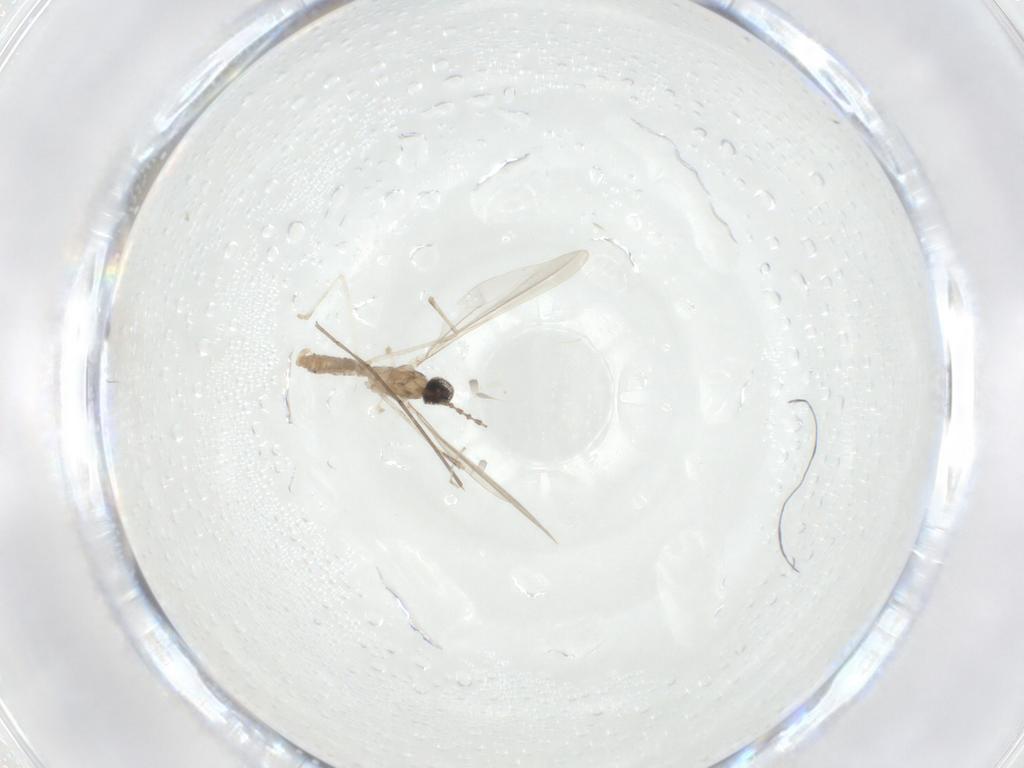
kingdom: Animalia
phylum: Arthropoda
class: Insecta
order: Diptera
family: Cecidomyiidae
